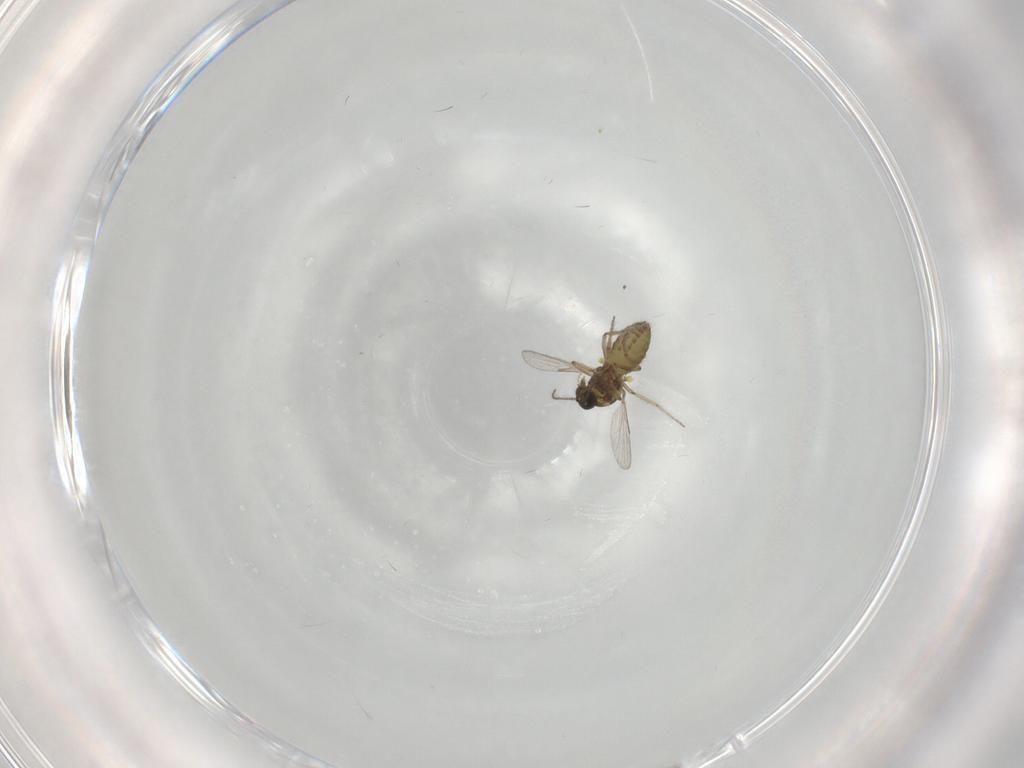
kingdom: Animalia
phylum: Arthropoda
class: Insecta
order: Diptera
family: Ceratopogonidae
